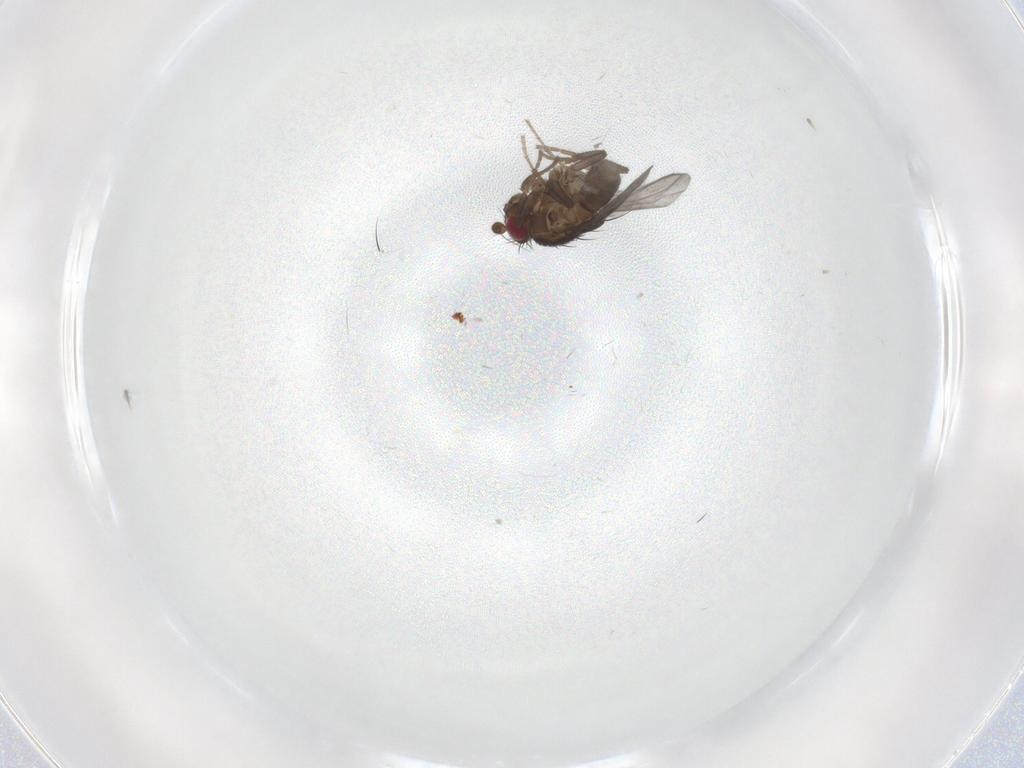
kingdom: Animalia
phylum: Arthropoda
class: Insecta
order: Diptera
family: Sphaeroceridae
